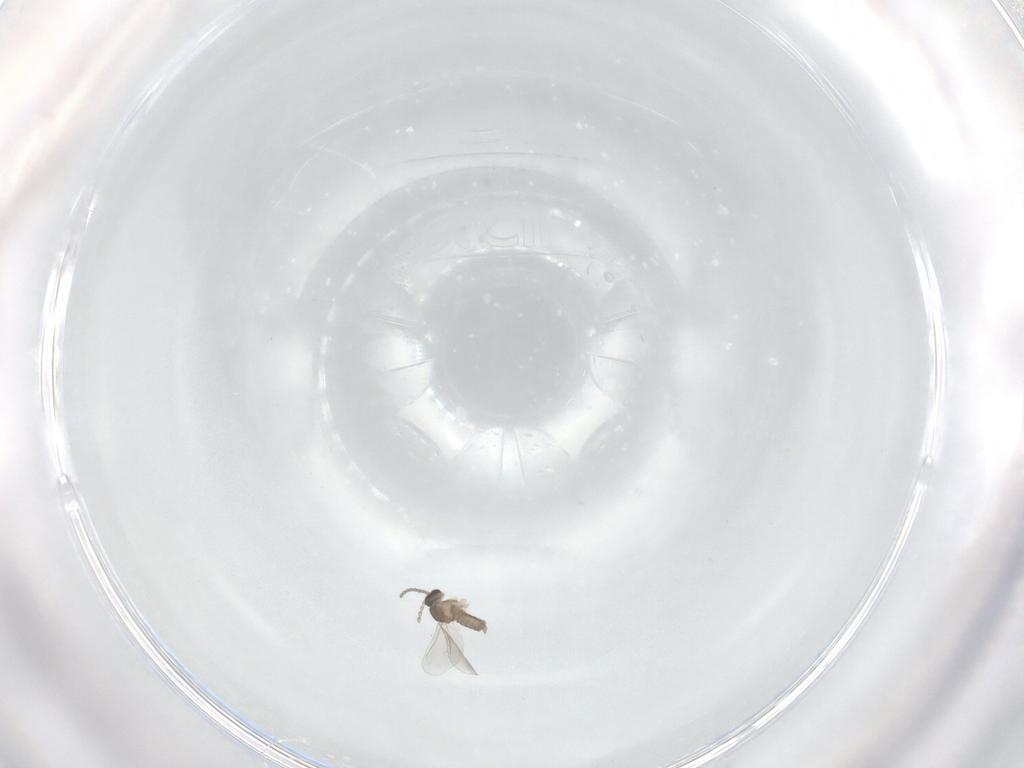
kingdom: Animalia
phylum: Arthropoda
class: Insecta
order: Diptera
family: Cecidomyiidae
